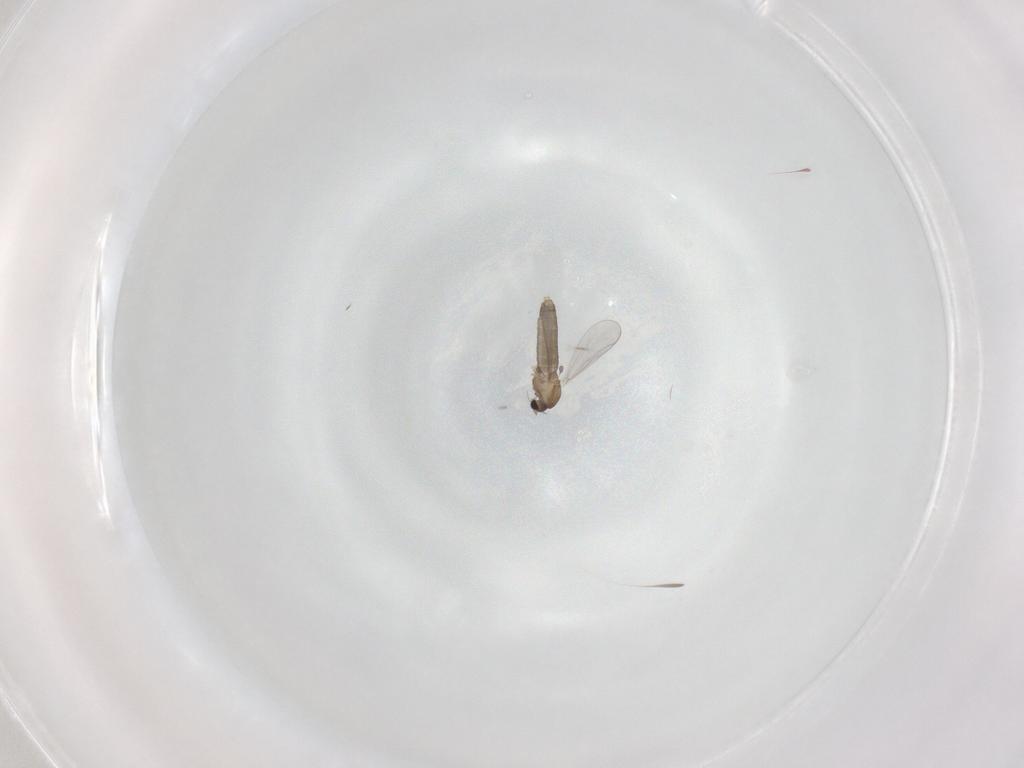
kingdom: Animalia
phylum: Arthropoda
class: Insecta
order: Diptera
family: Chironomidae
